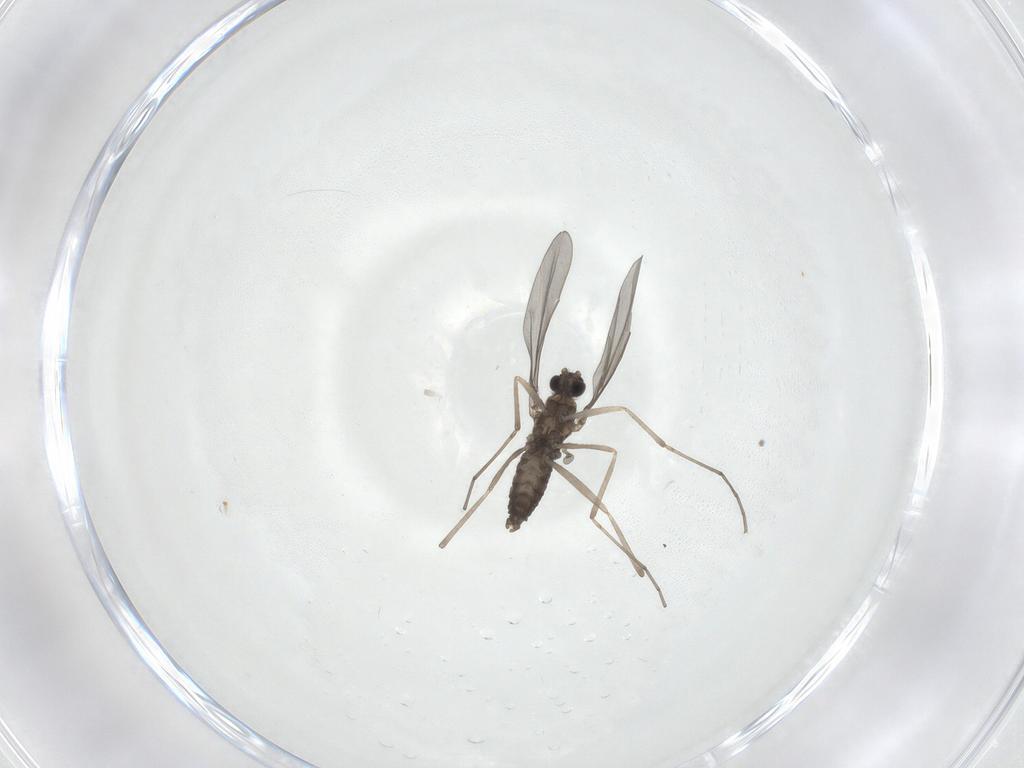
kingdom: Animalia
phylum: Arthropoda
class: Insecta
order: Diptera
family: Cecidomyiidae
